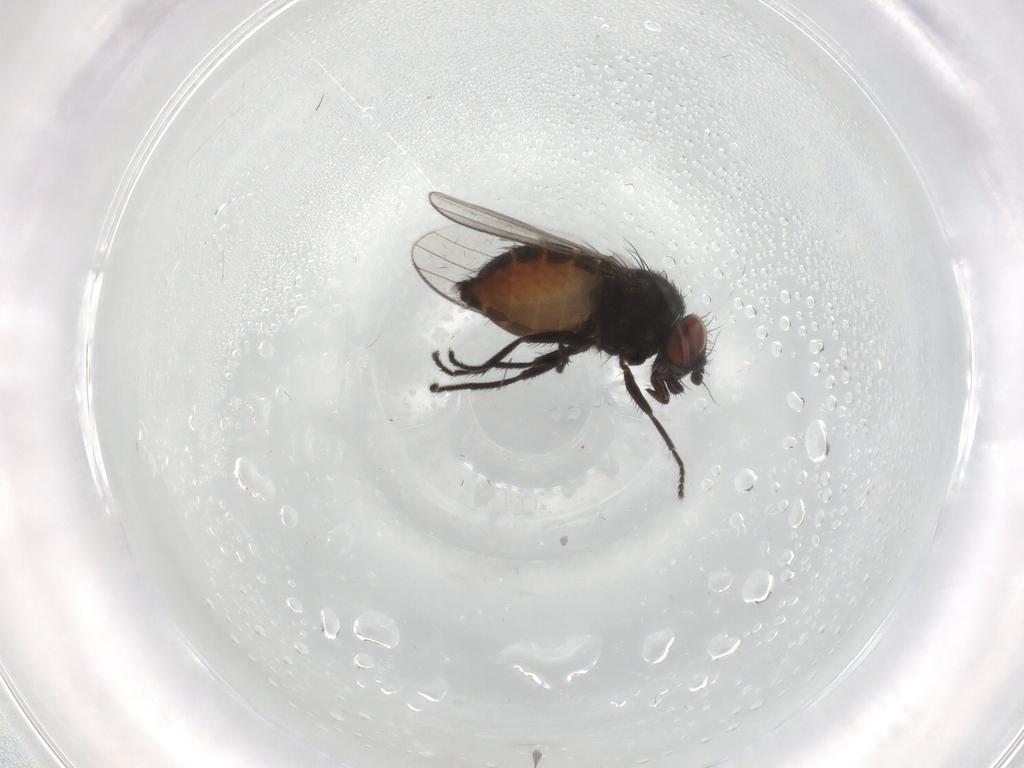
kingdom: Animalia
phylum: Arthropoda
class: Insecta
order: Diptera
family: Milichiidae
